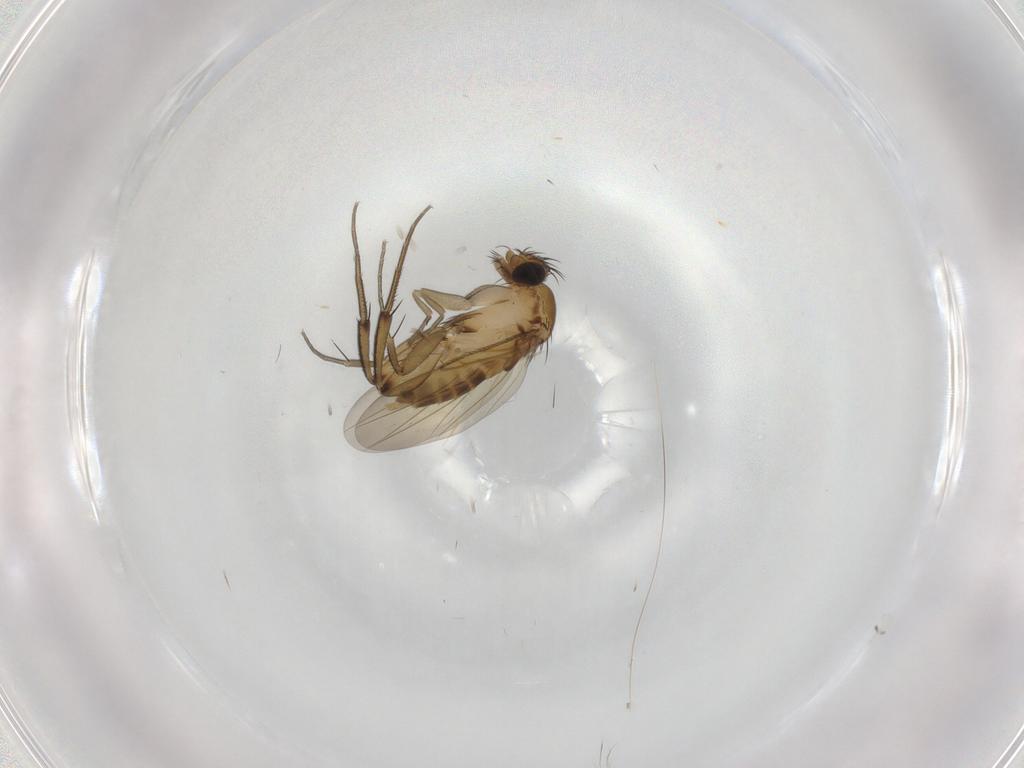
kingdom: Animalia
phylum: Arthropoda
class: Insecta
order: Diptera
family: Phoridae
